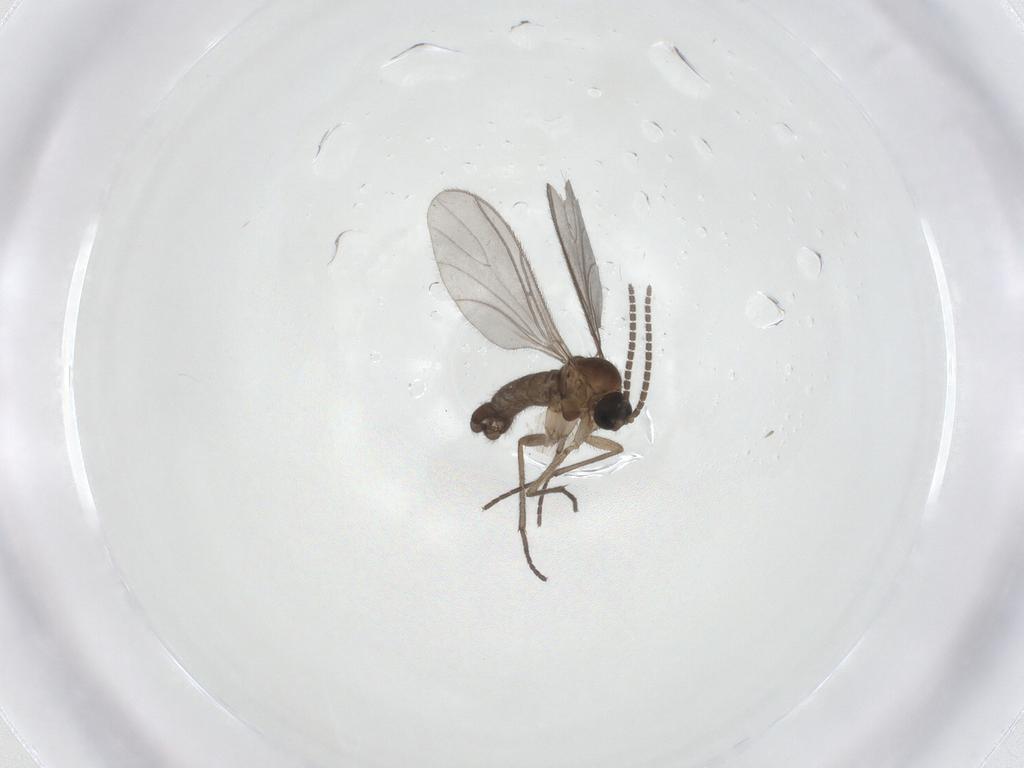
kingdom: Animalia
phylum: Arthropoda
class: Insecta
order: Diptera
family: Sciaridae
